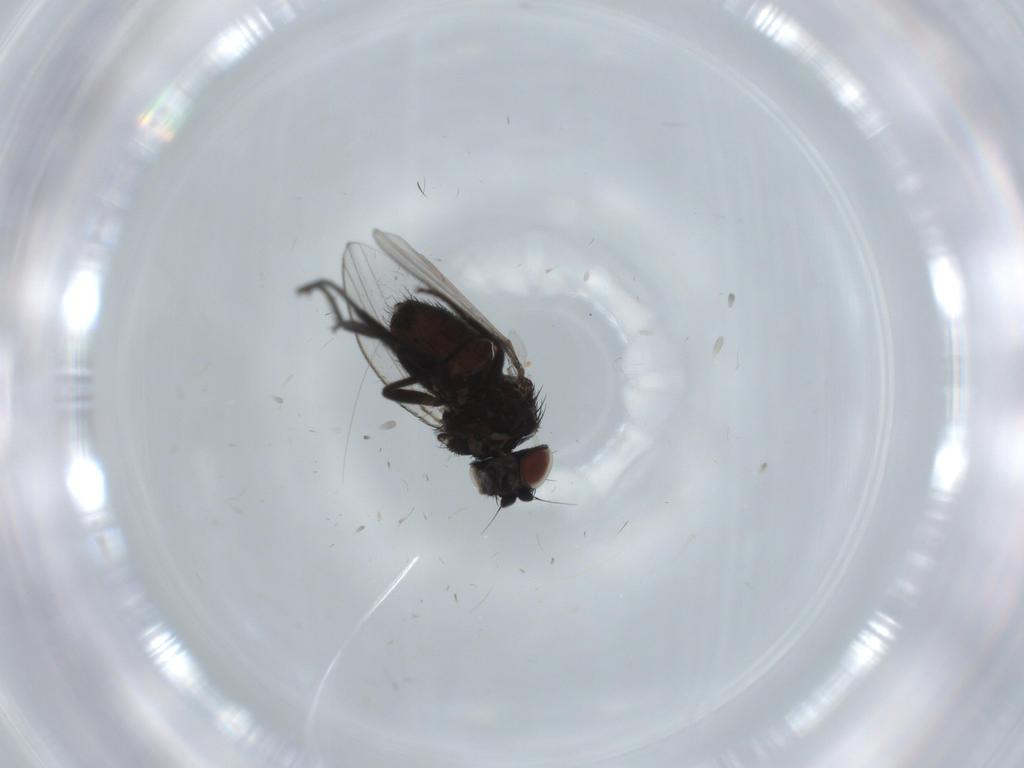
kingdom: Animalia
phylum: Arthropoda
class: Insecta
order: Diptera
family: Milichiidae
